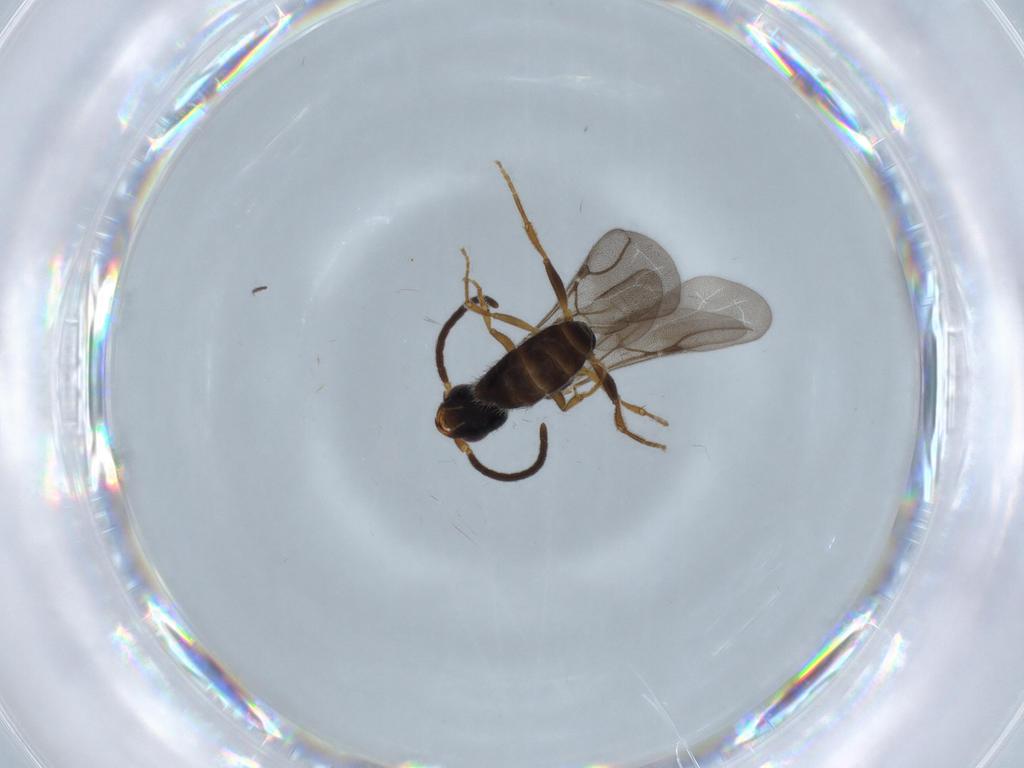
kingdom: Animalia
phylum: Arthropoda
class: Insecta
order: Hymenoptera
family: Bethylidae
